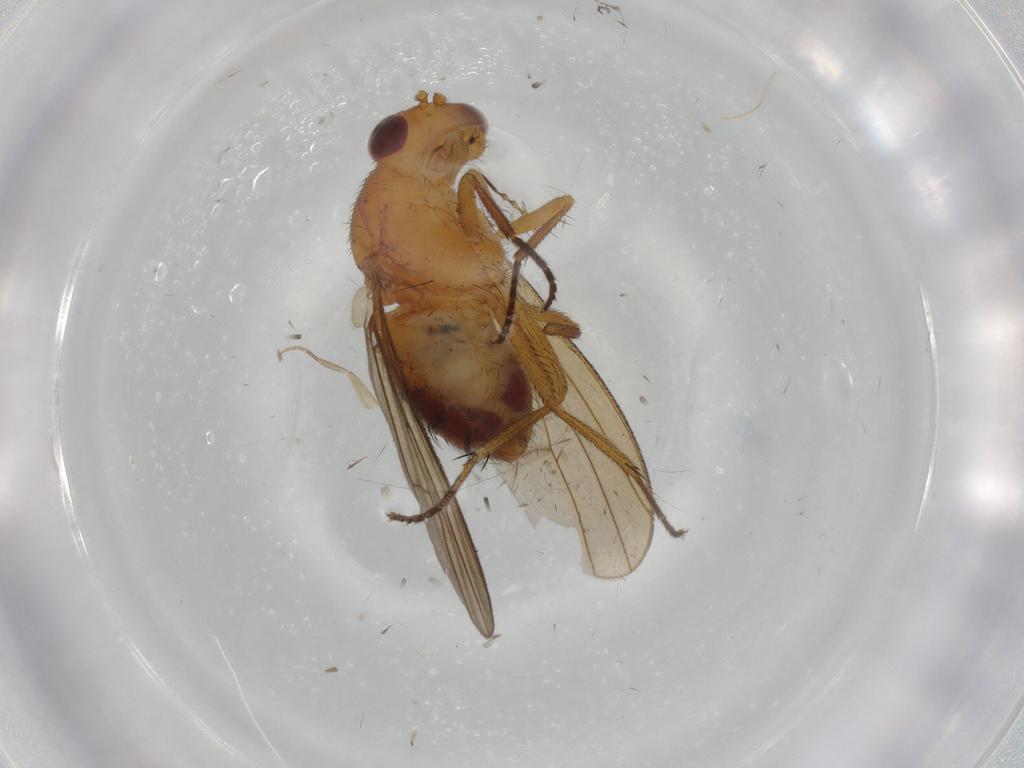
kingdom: Animalia
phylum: Arthropoda
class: Insecta
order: Diptera
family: Lauxaniidae
